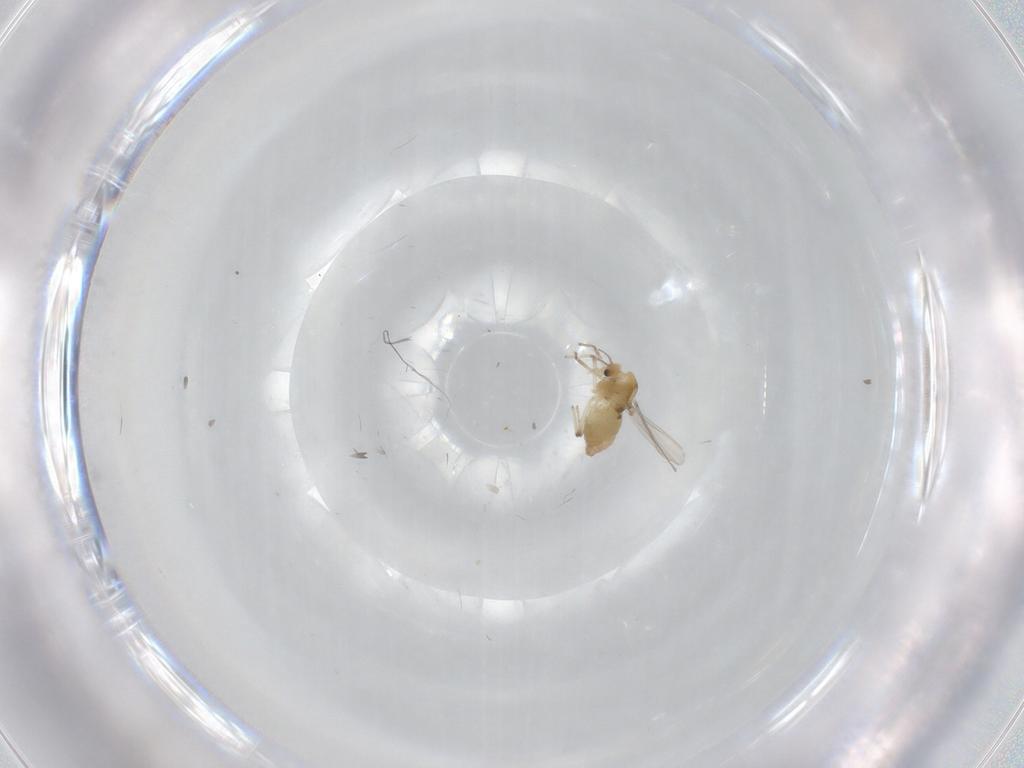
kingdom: Animalia
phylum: Arthropoda
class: Insecta
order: Diptera
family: Chironomidae
